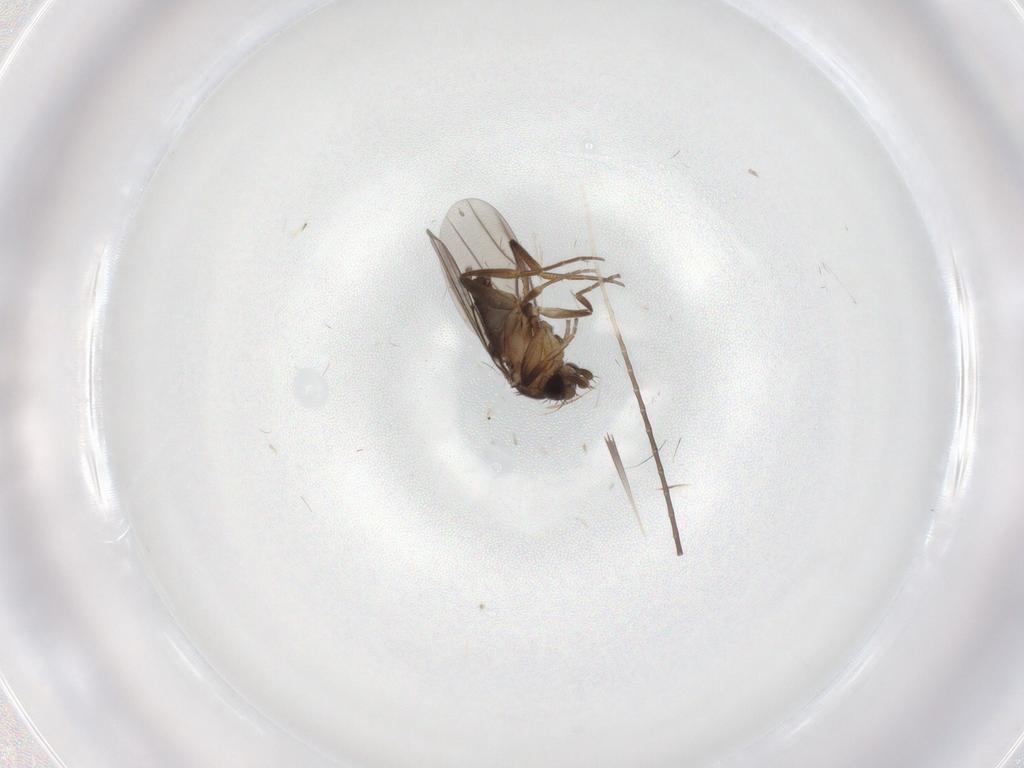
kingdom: Animalia
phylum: Arthropoda
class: Insecta
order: Diptera
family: Phoridae
